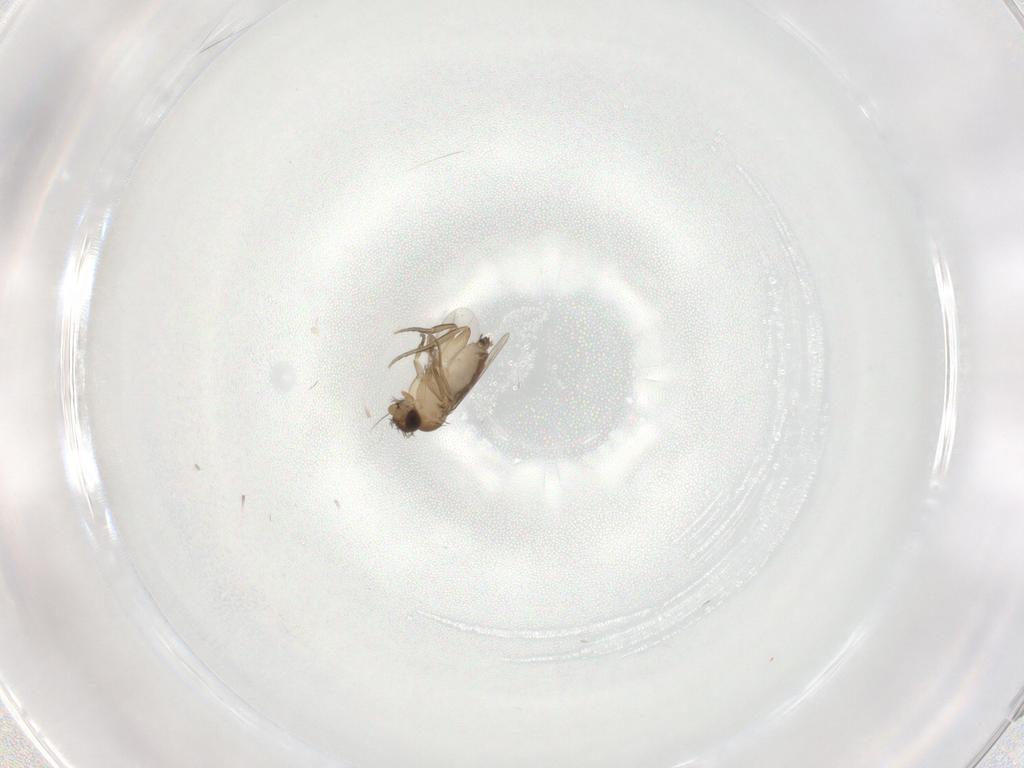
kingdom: Animalia
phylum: Arthropoda
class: Insecta
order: Diptera
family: Phoridae
